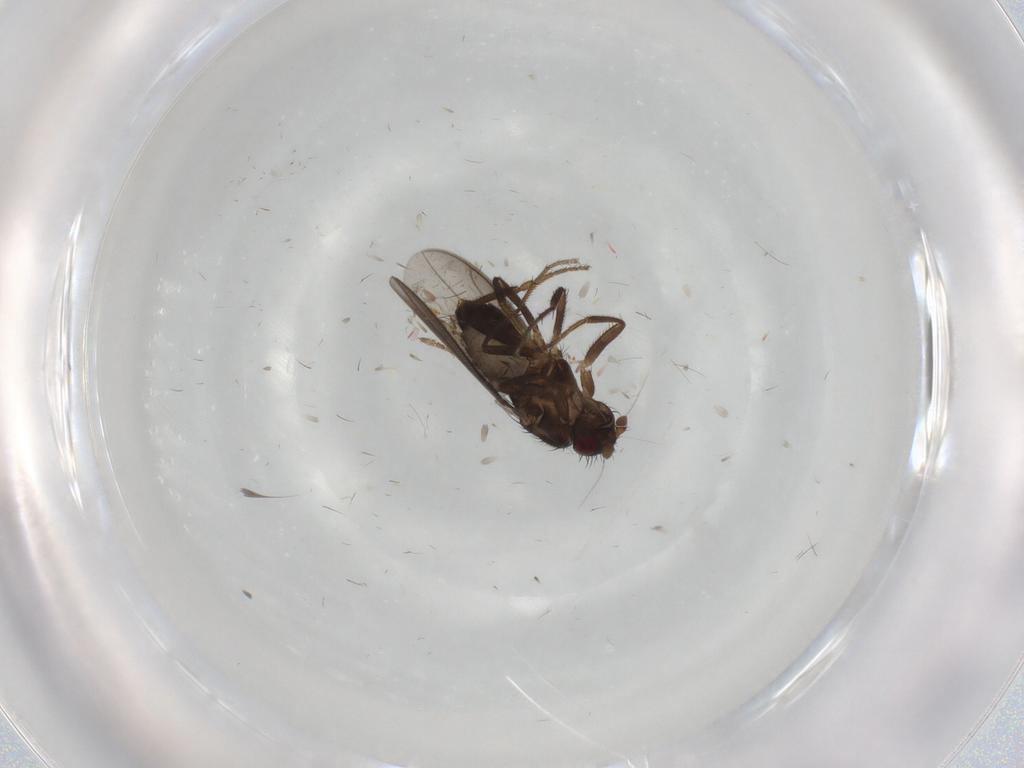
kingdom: Animalia
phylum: Arthropoda
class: Insecta
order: Diptera
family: Sphaeroceridae
